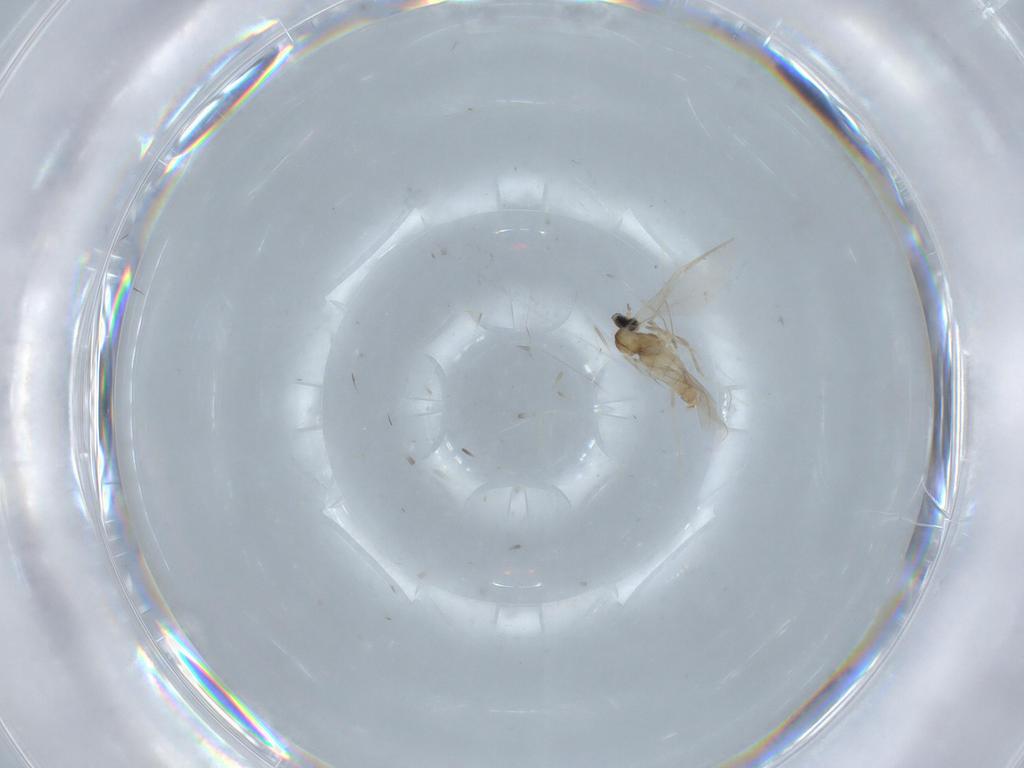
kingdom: Animalia
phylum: Arthropoda
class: Insecta
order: Diptera
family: Cecidomyiidae
